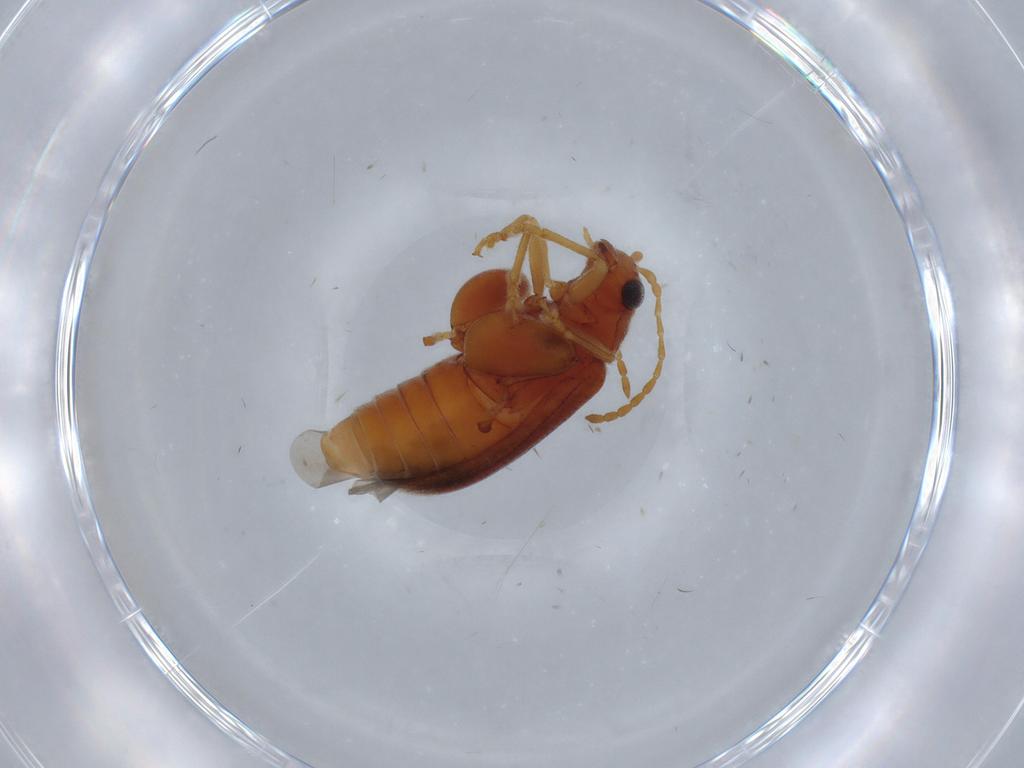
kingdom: Animalia
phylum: Arthropoda
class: Insecta
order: Coleoptera
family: Chrysomelidae
